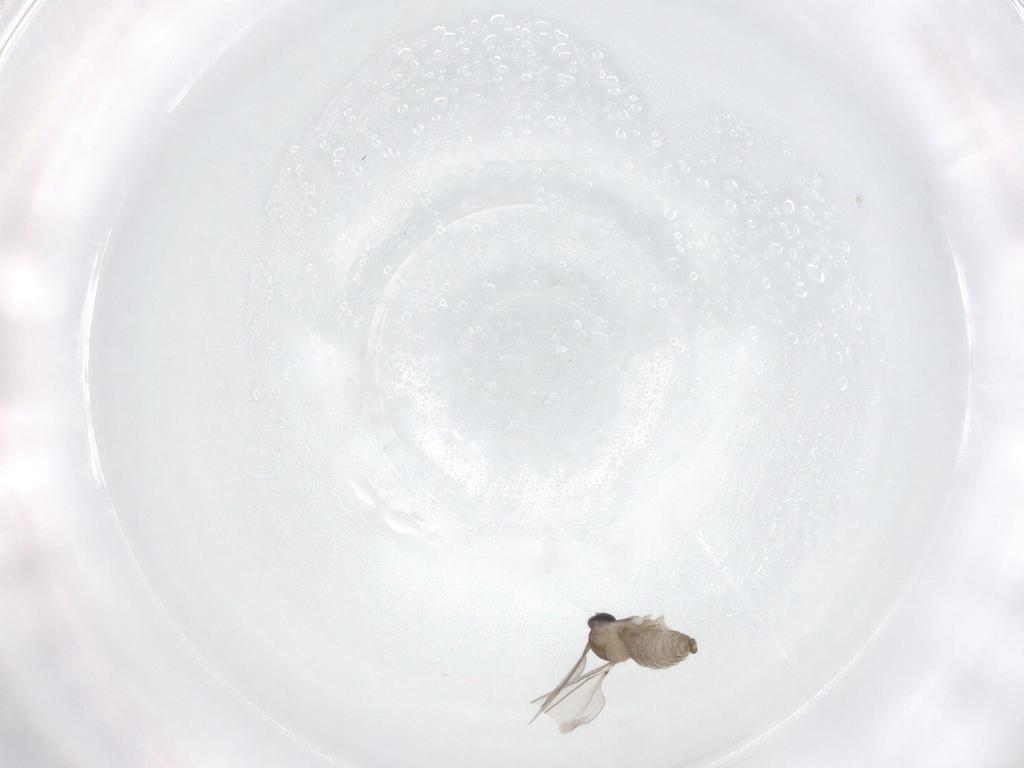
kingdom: Animalia
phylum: Arthropoda
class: Insecta
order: Diptera
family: Cecidomyiidae
